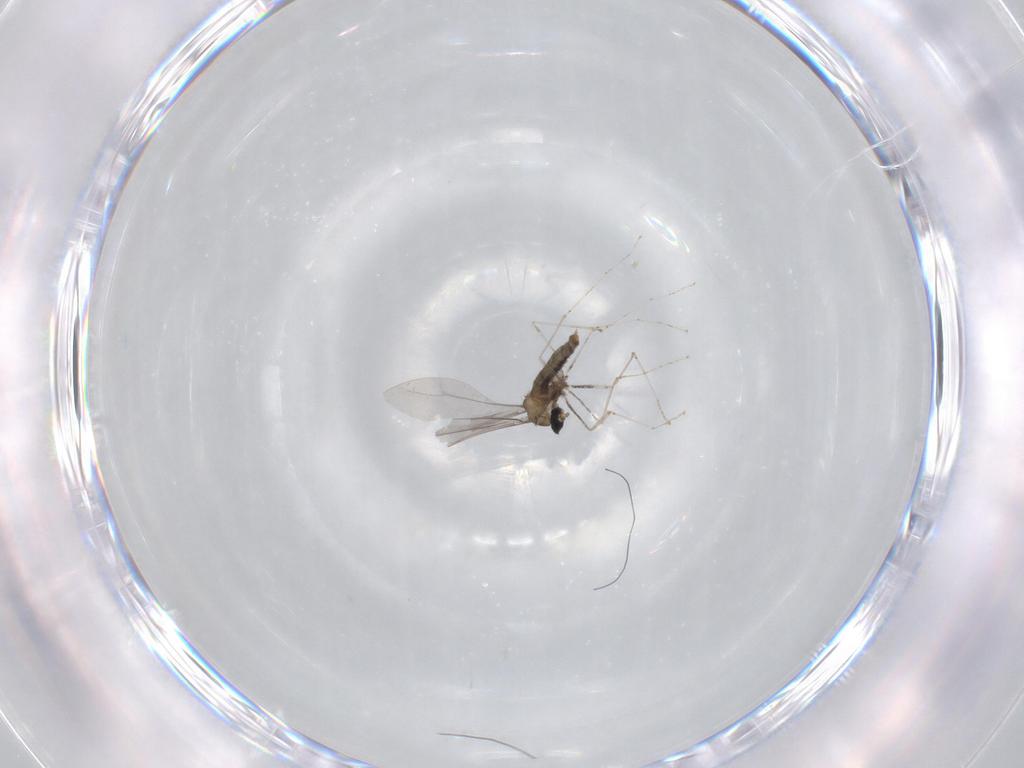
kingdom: Animalia
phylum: Arthropoda
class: Insecta
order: Diptera
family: Cecidomyiidae
